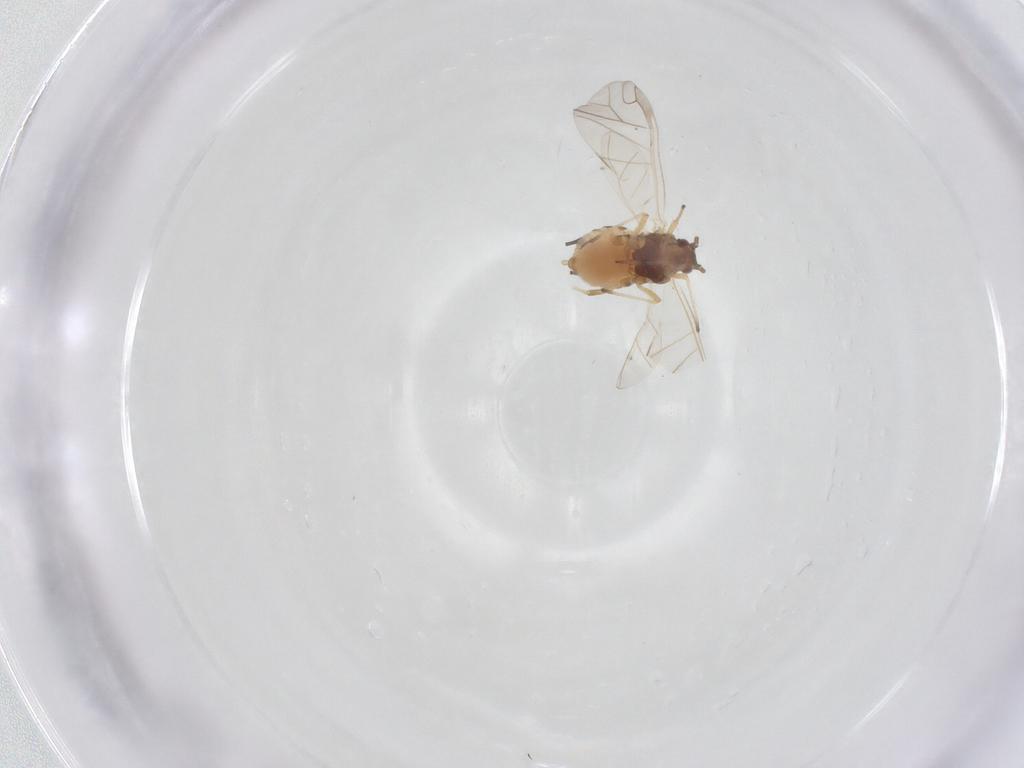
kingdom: Animalia
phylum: Arthropoda
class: Insecta
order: Hemiptera
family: Aphididae
